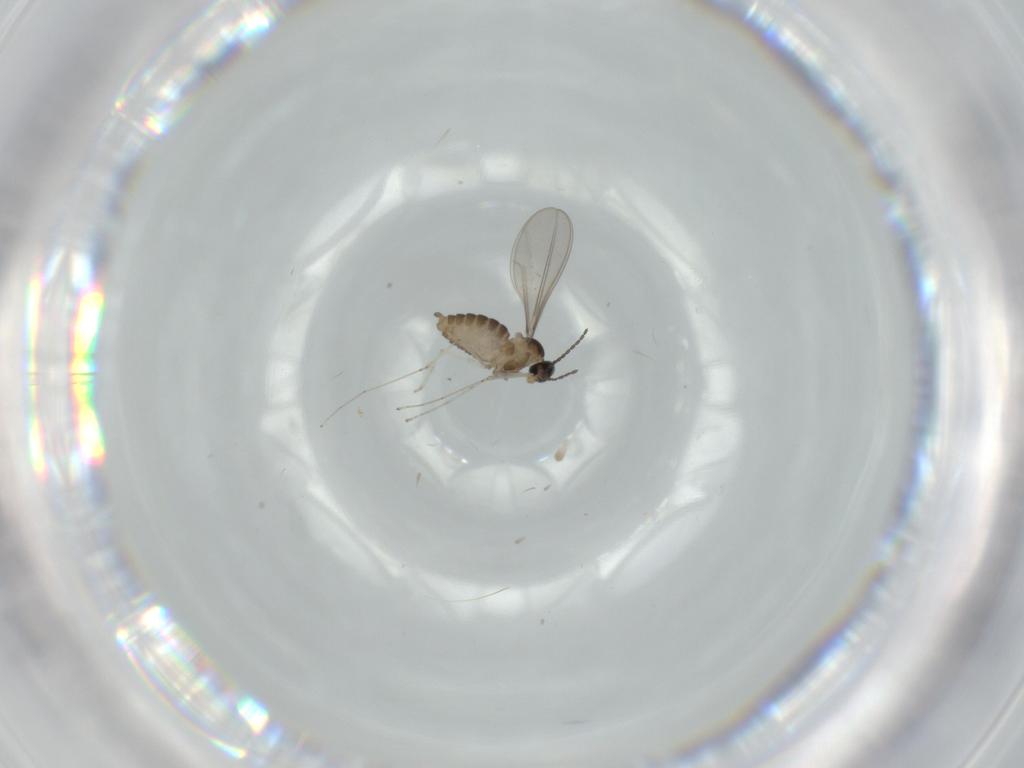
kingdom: Animalia
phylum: Arthropoda
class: Insecta
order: Diptera
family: Cecidomyiidae
